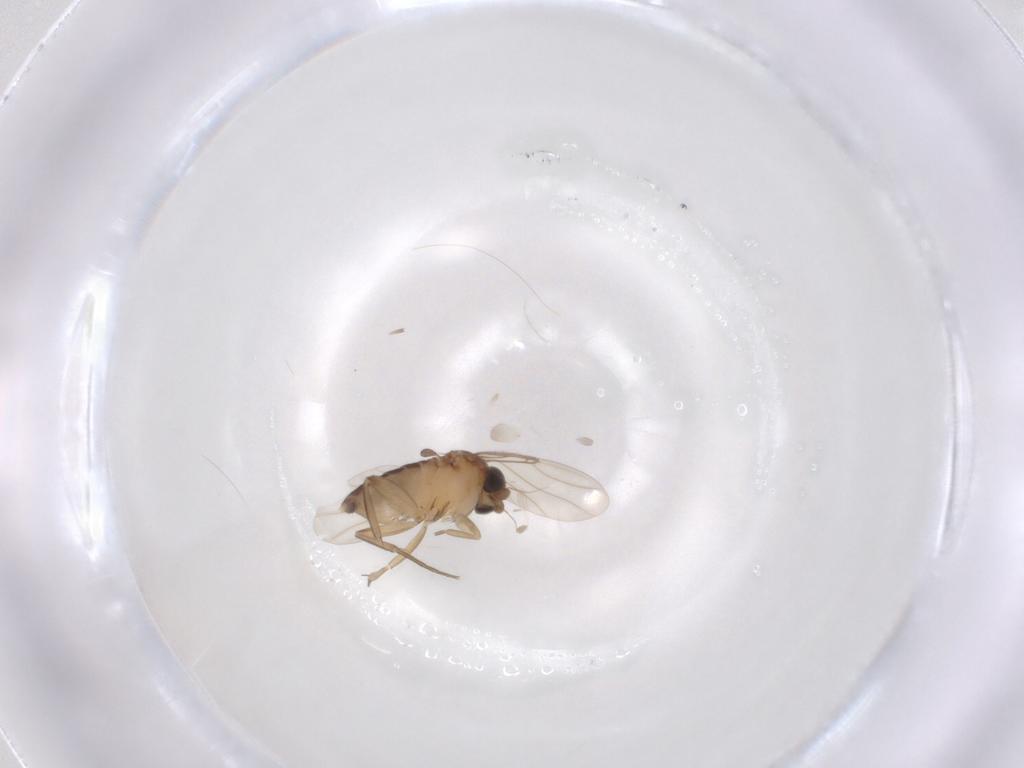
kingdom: Animalia
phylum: Arthropoda
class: Insecta
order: Diptera
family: Phoridae
